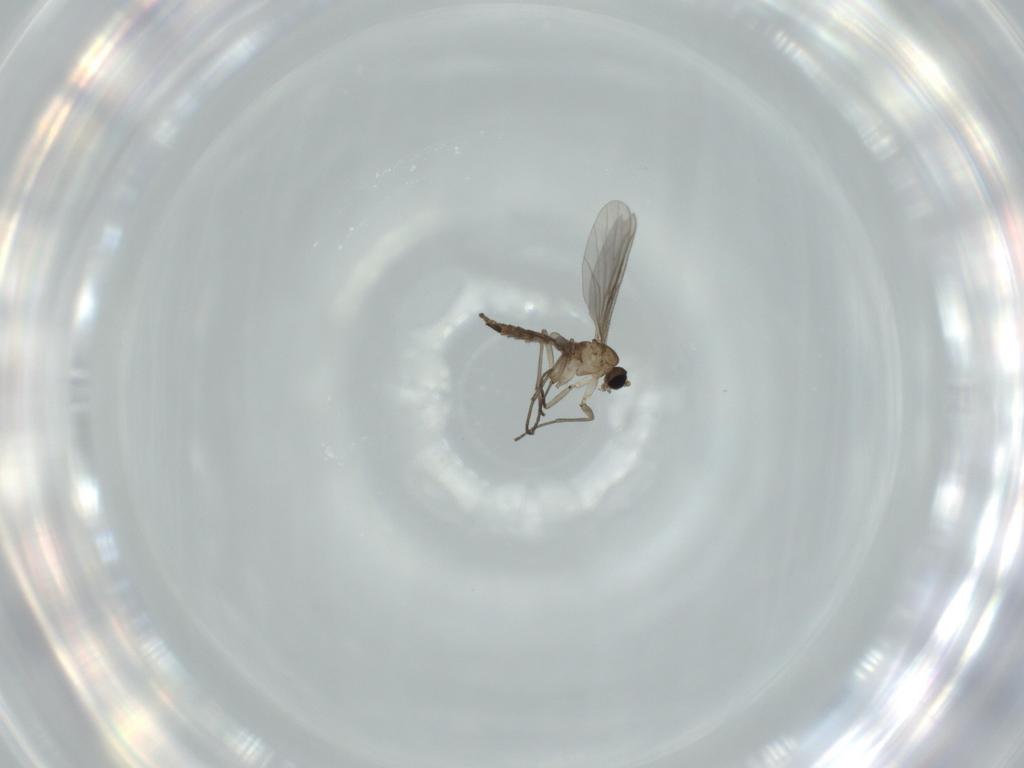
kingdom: Animalia
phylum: Arthropoda
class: Insecta
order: Diptera
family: Sciaridae
